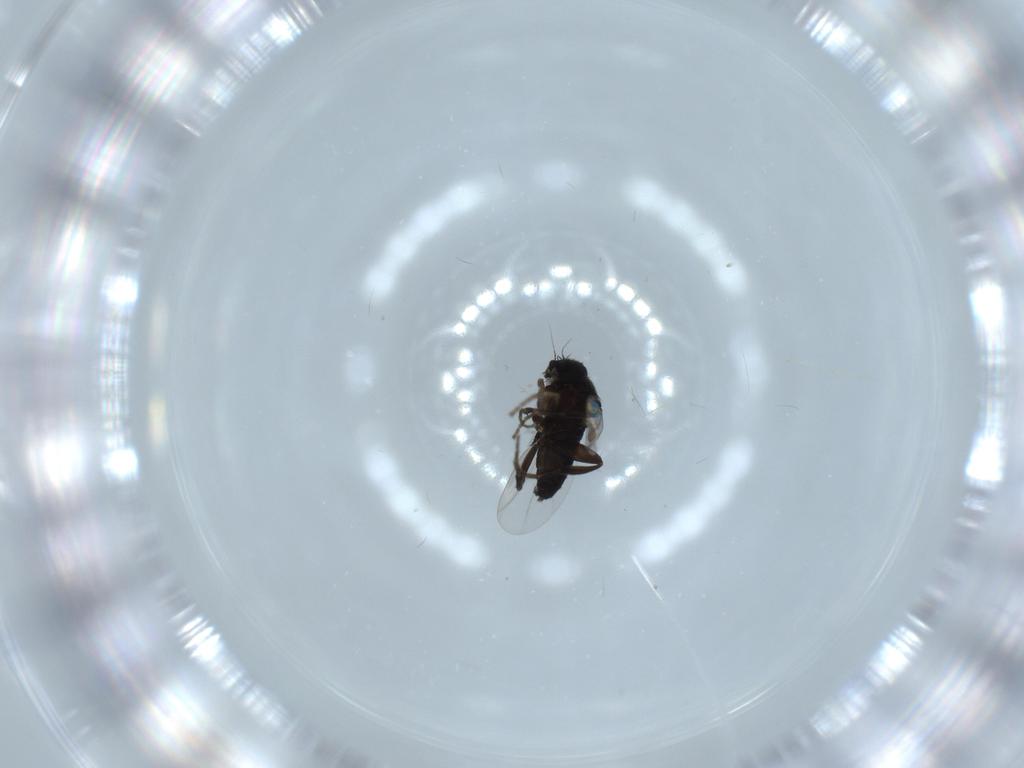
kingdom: Animalia
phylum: Arthropoda
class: Insecta
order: Diptera
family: Phoridae
